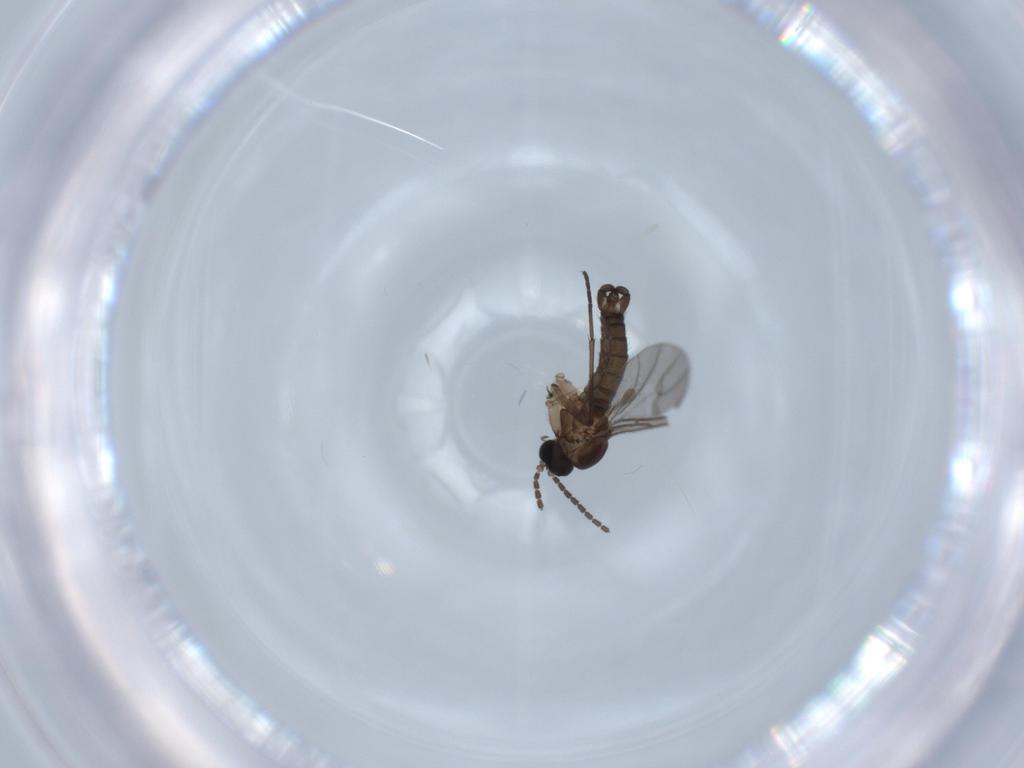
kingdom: Animalia
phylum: Arthropoda
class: Insecta
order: Diptera
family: Sciaridae
